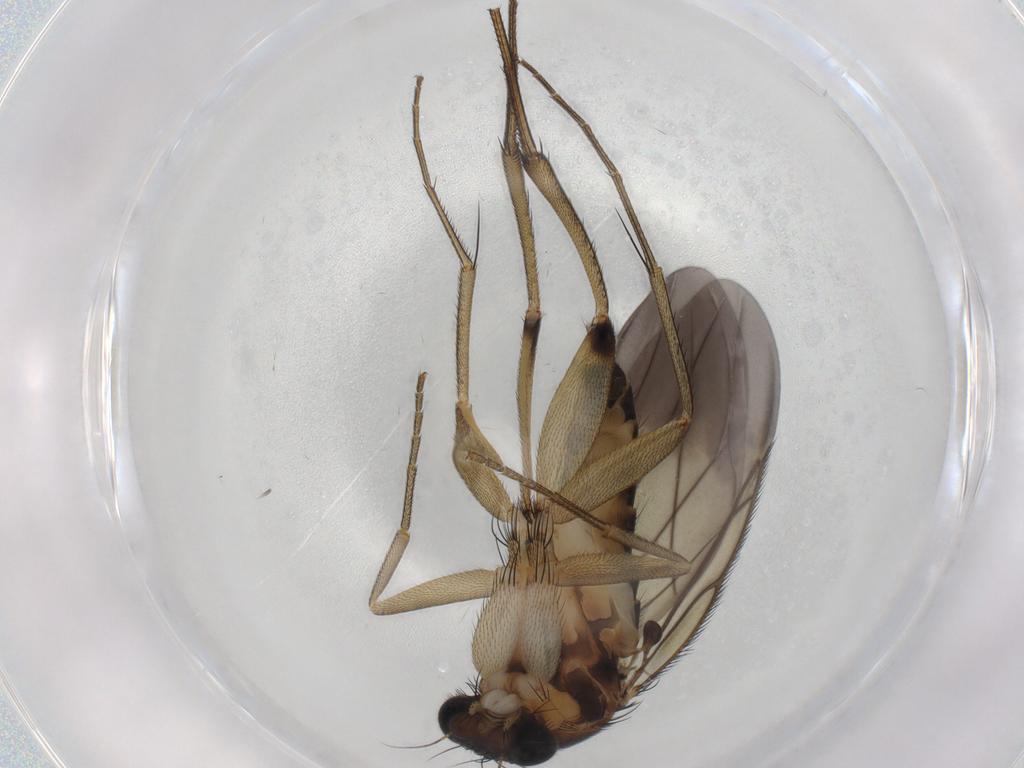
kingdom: Animalia
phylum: Arthropoda
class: Insecta
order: Diptera
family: Phoridae
